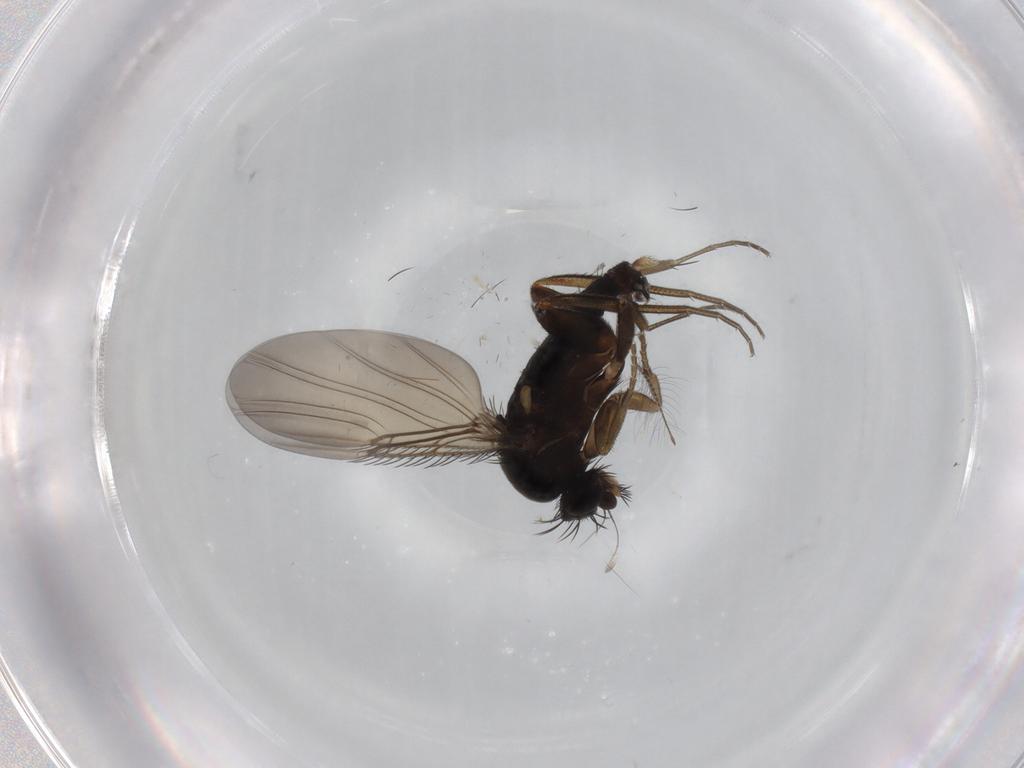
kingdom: Animalia
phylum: Arthropoda
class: Insecta
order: Diptera
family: Phoridae
